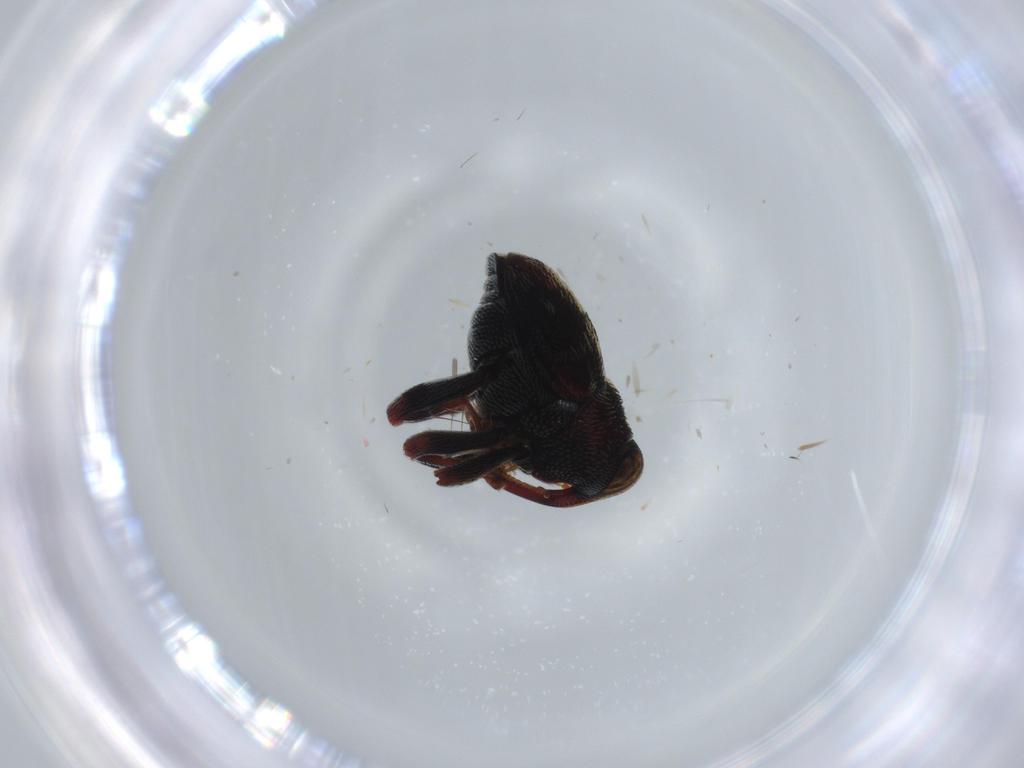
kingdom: Animalia
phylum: Arthropoda
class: Insecta
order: Coleoptera
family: Curculionidae
